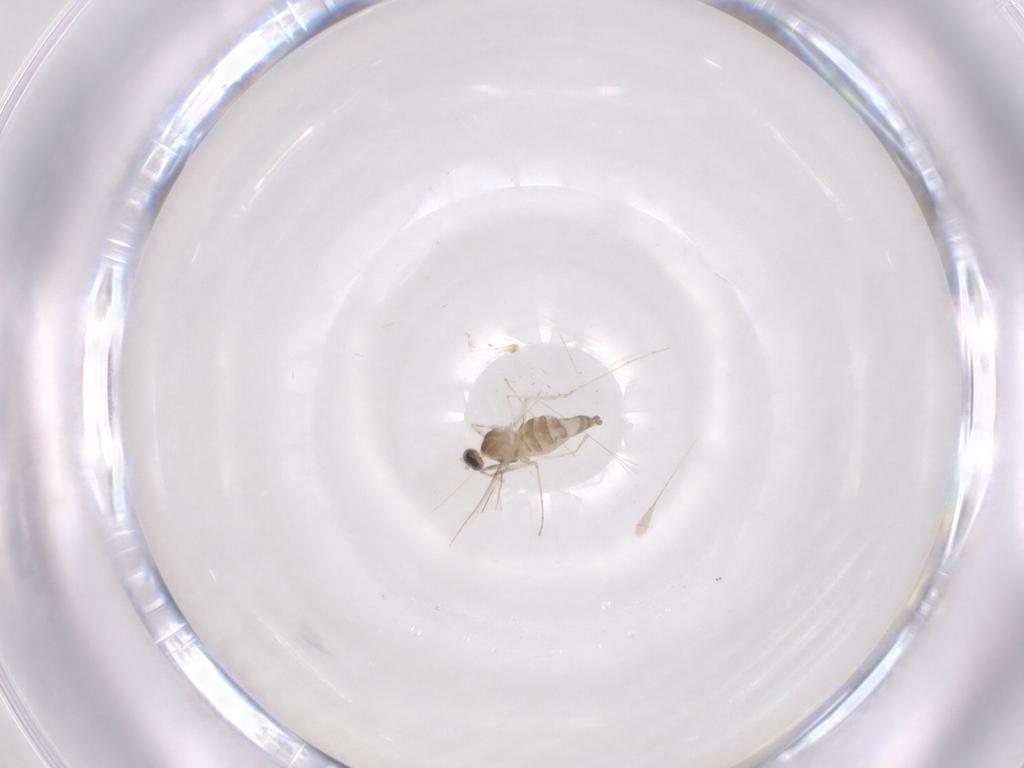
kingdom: Animalia
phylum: Arthropoda
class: Insecta
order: Diptera
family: Cecidomyiidae
